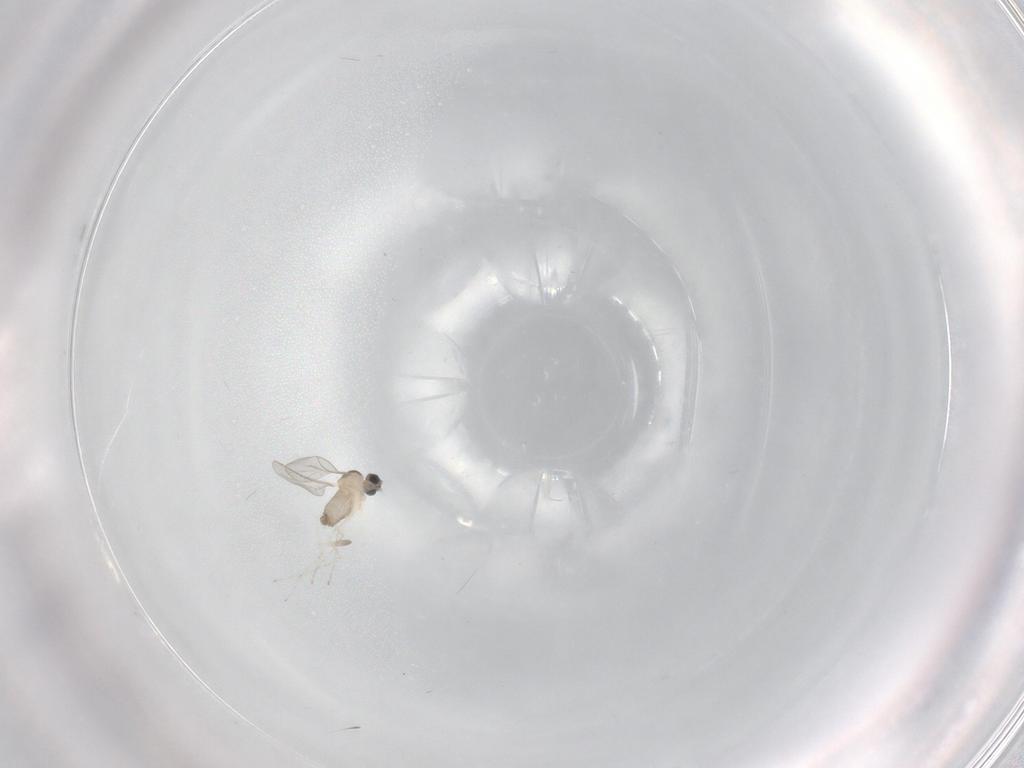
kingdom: Animalia
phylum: Arthropoda
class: Insecta
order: Diptera
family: Cecidomyiidae
